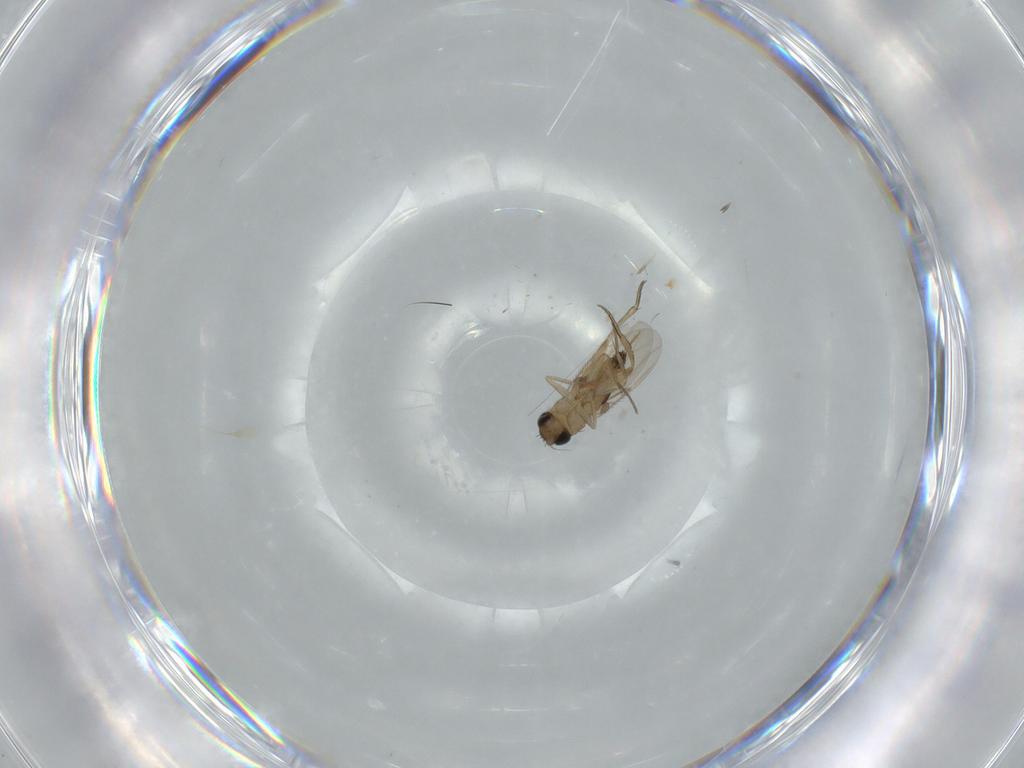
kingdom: Animalia
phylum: Arthropoda
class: Insecta
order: Diptera
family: Phoridae
